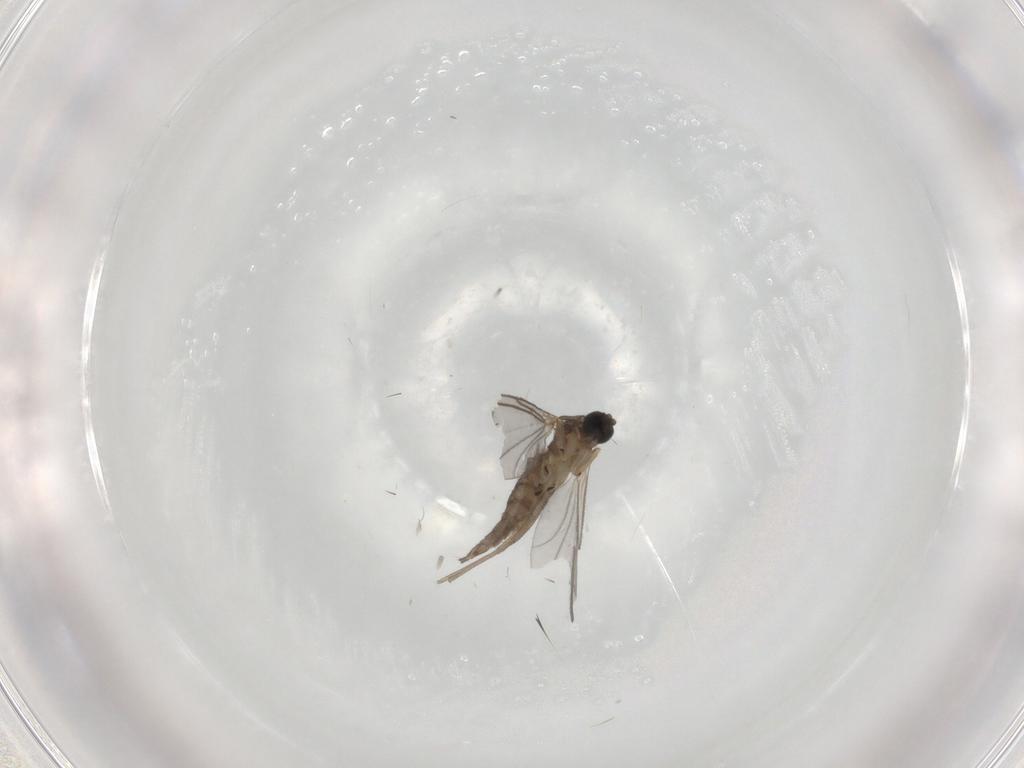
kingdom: Animalia
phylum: Arthropoda
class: Insecta
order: Diptera
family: Sciaridae
